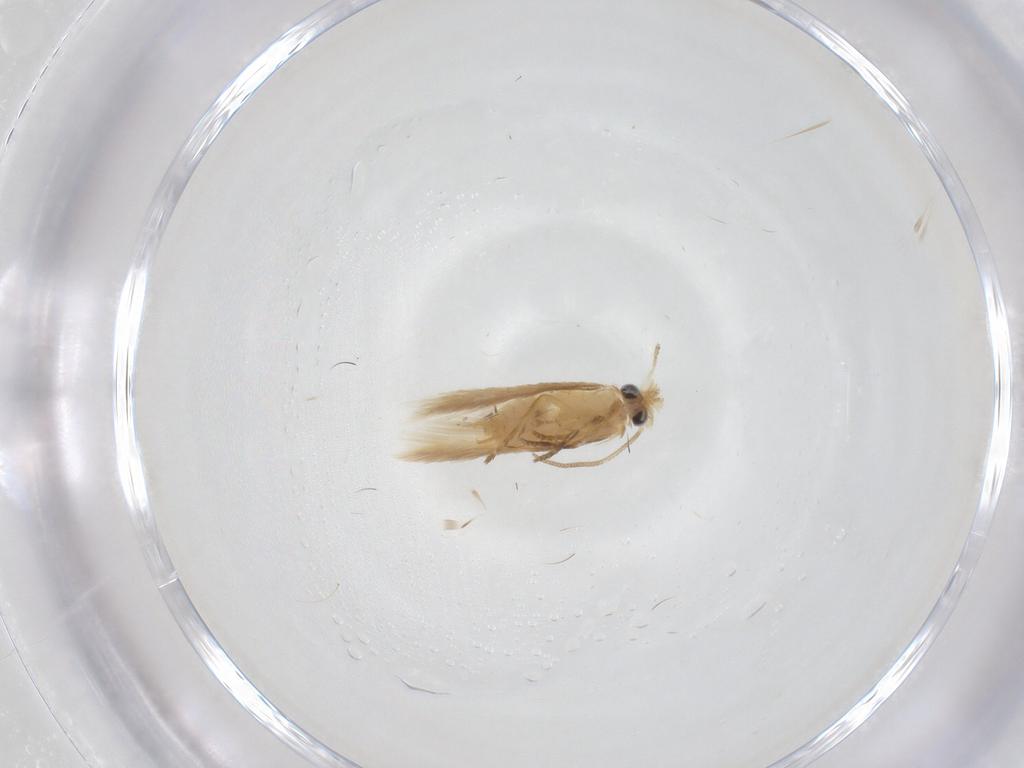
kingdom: Animalia
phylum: Arthropoda
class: Insecta
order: Lepidoptera
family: Nepticulidae
